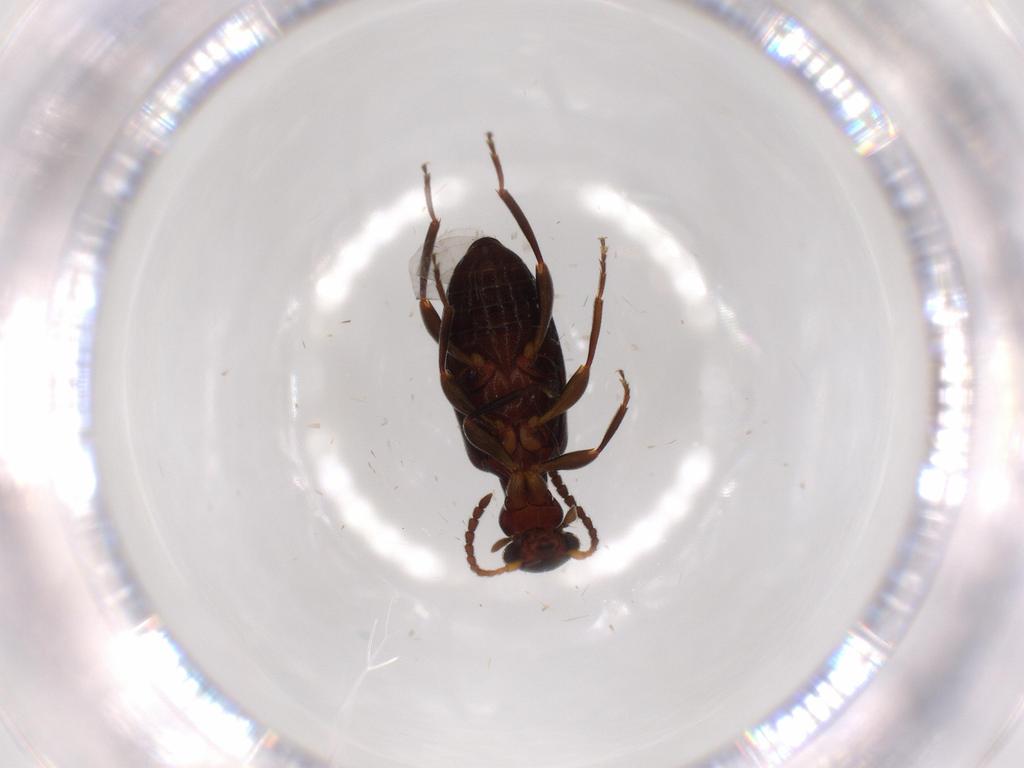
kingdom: Animalia
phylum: Arthropoda
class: Insecta
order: Coleoptera
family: Anthicidae
